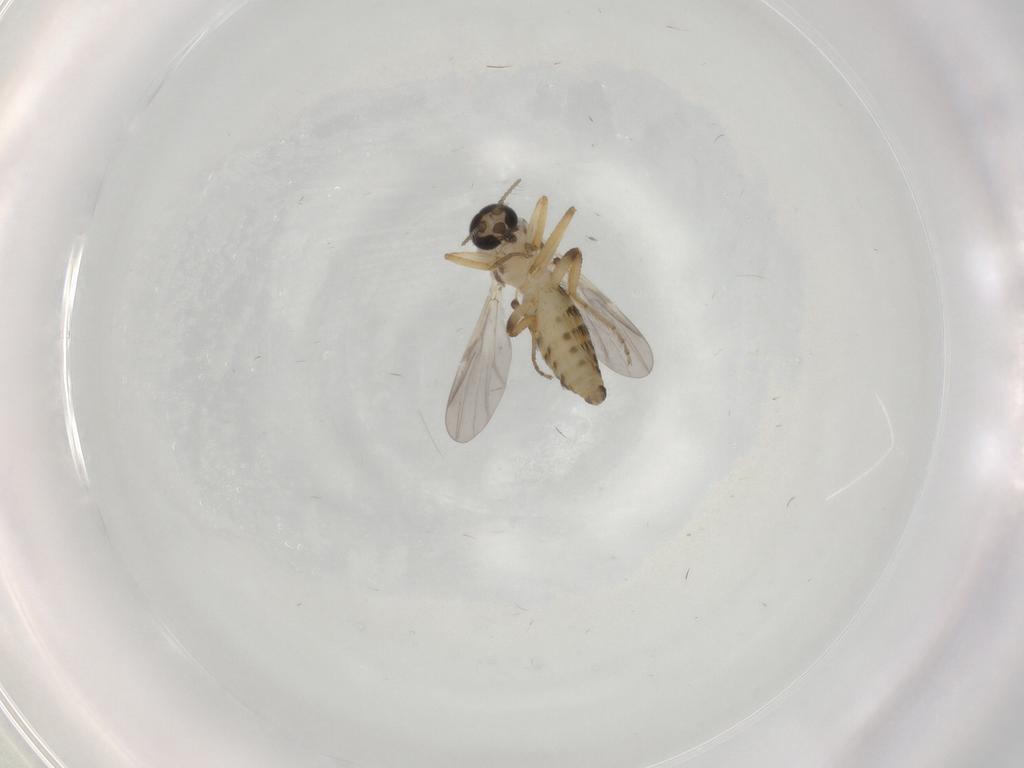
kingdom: Animalia
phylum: Arthropoda
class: Insecta
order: Diptera
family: Ceratopogonidae
